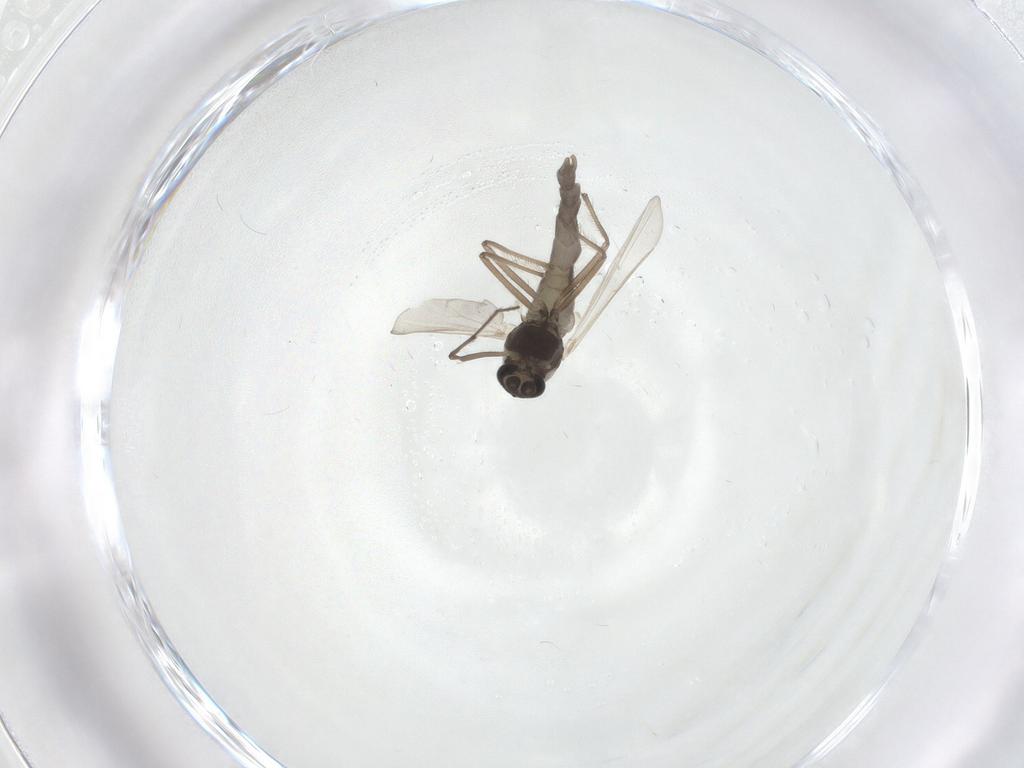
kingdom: Animalia
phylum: Arthropoda
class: Insecta
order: Diptera
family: Chironomidae
